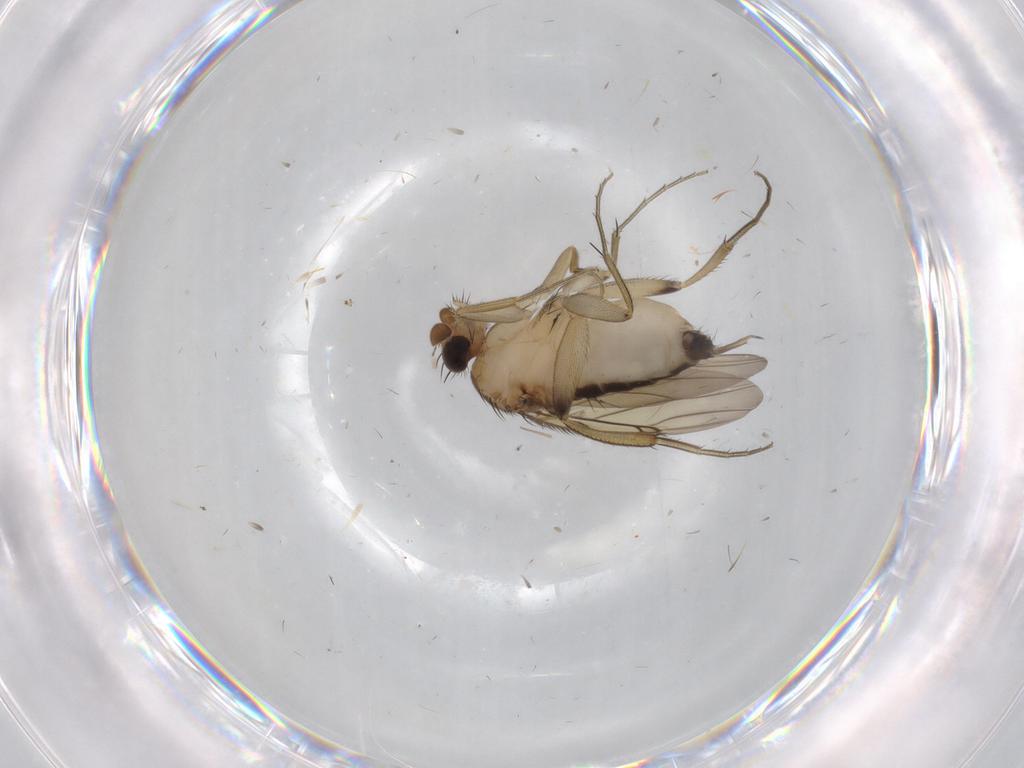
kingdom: Animalia
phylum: Arthropoda
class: Insecta
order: Diptera
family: Phoridae
